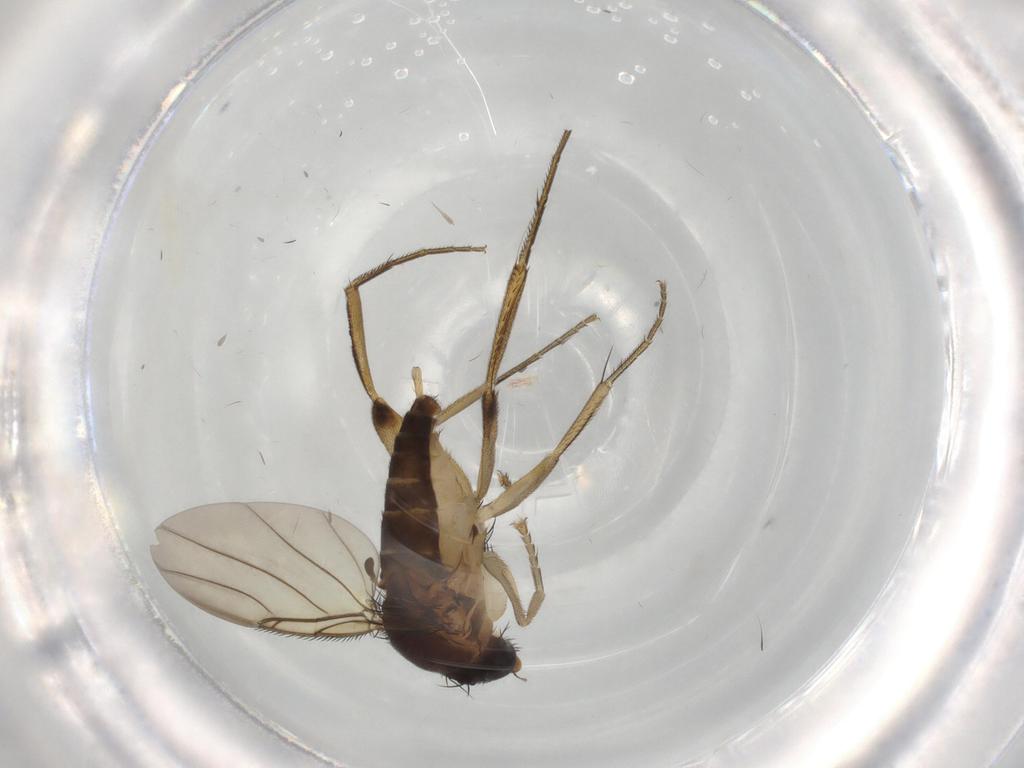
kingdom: Animalia
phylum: Arthropoda
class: Insecta
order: Diptera
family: Phoridae
